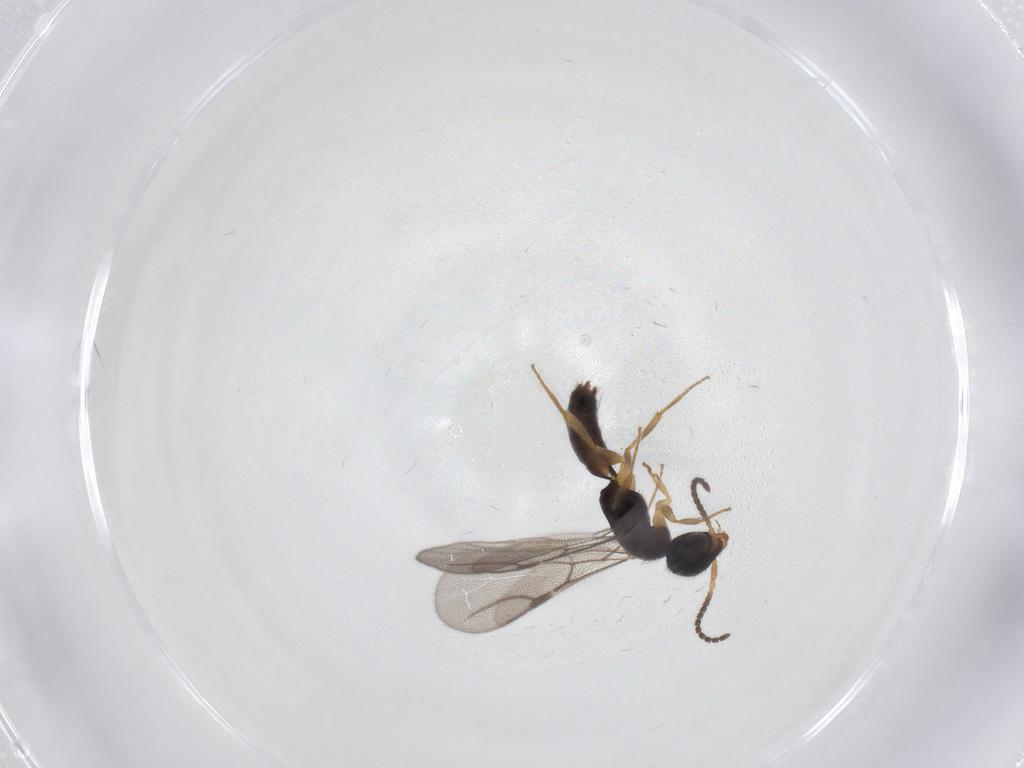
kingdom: Animalia
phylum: Arthropoda
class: Insecta
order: Hymenoptera
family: Bethylidae
